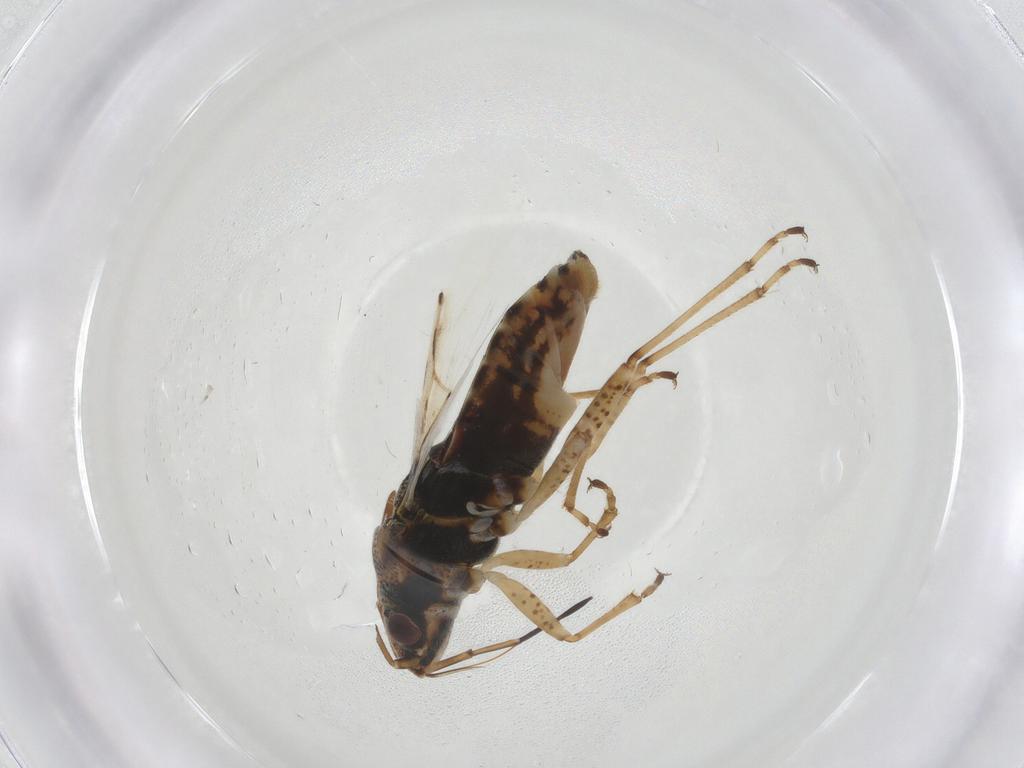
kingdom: Animalia
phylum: Arthropoda
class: Insecta
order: Hemiptera
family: Lygaeidae
